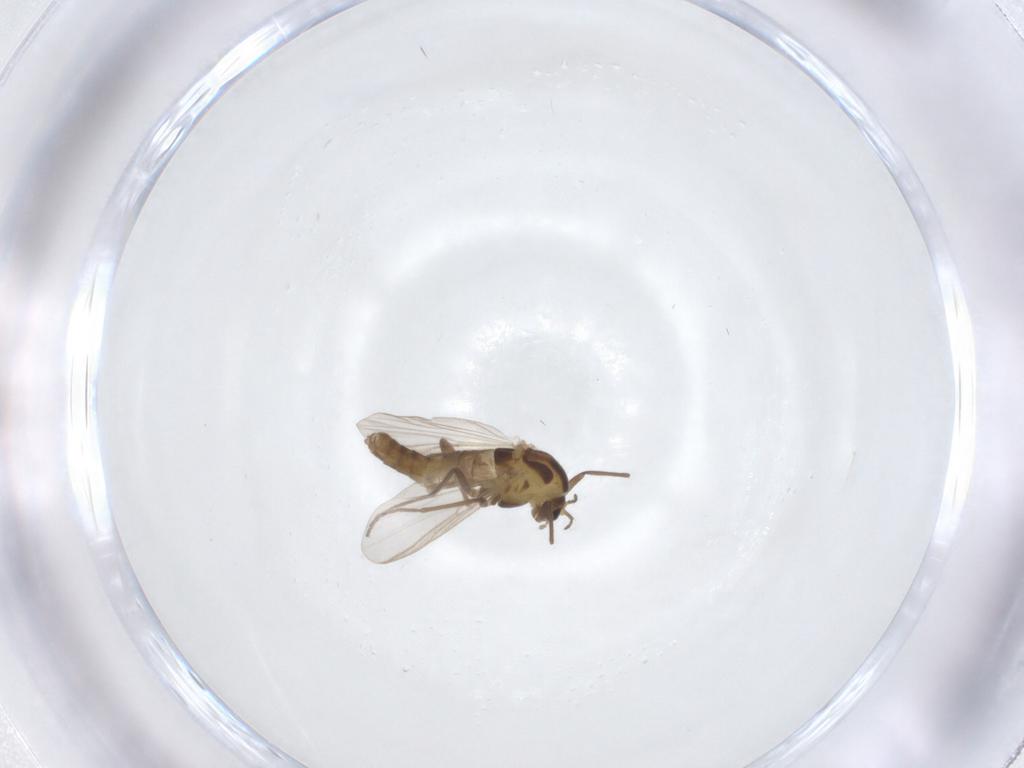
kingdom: Animalia
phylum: Arthropoda
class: Insecta
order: Diptera
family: Chironomidae
